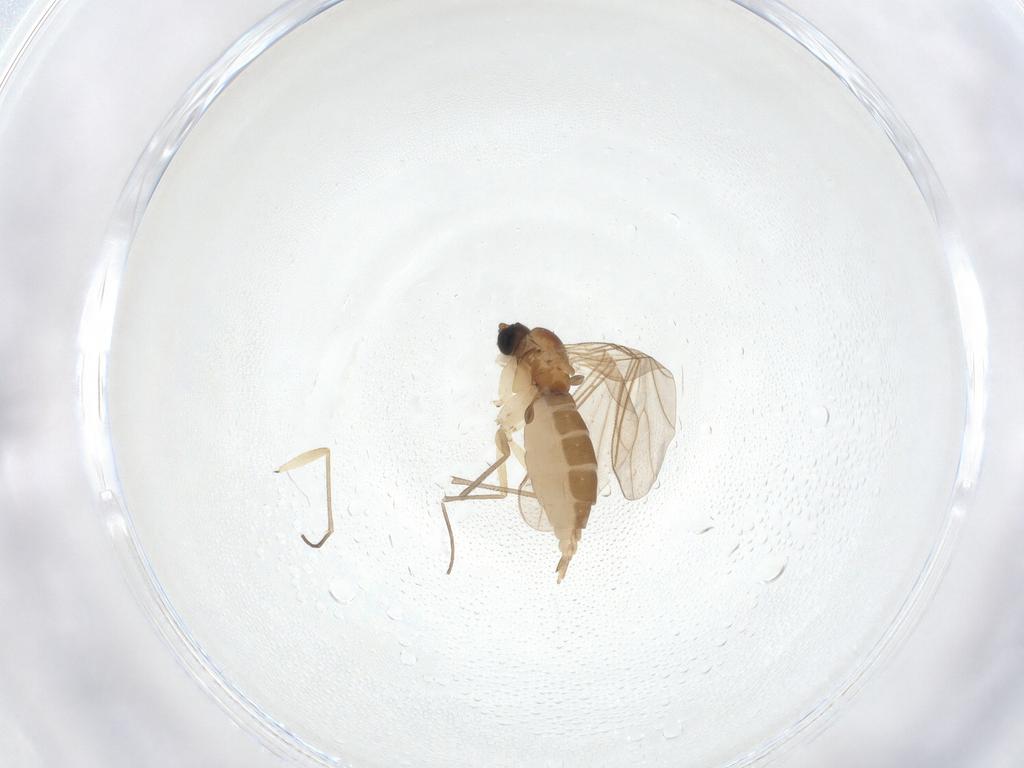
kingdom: Animalia
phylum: Arthropoda
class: Insecta
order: Diptera
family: Sciaridae
